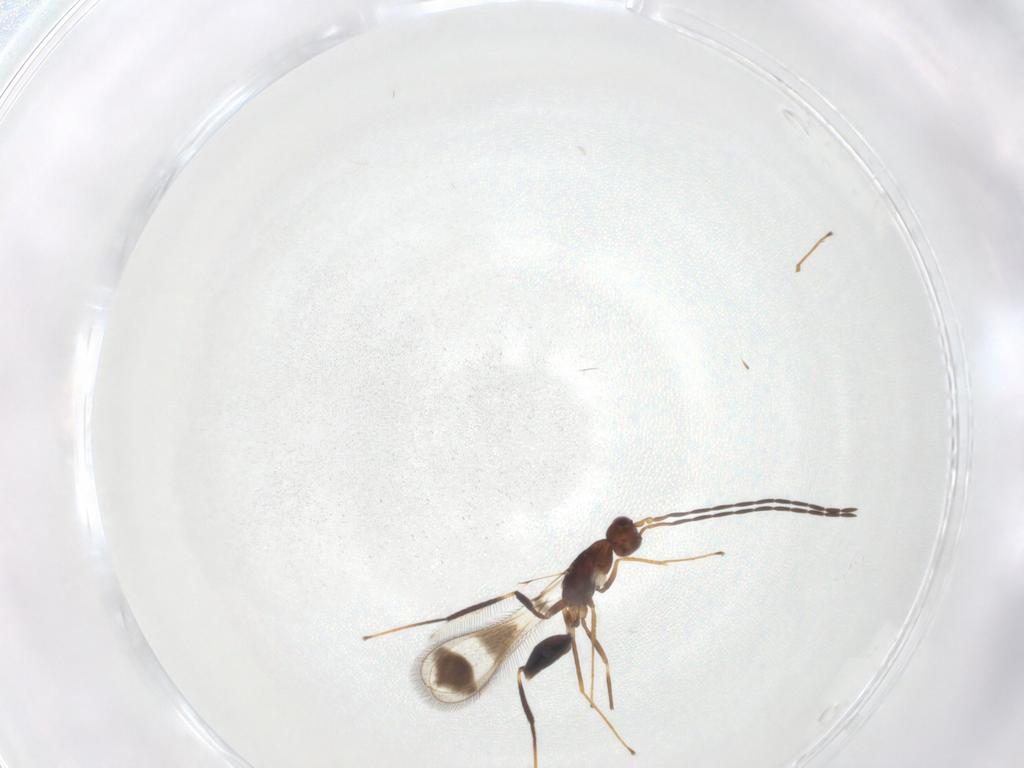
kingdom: Animalia
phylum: Arthropoda
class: Insecta
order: Hymenoptera
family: Mymaridae
